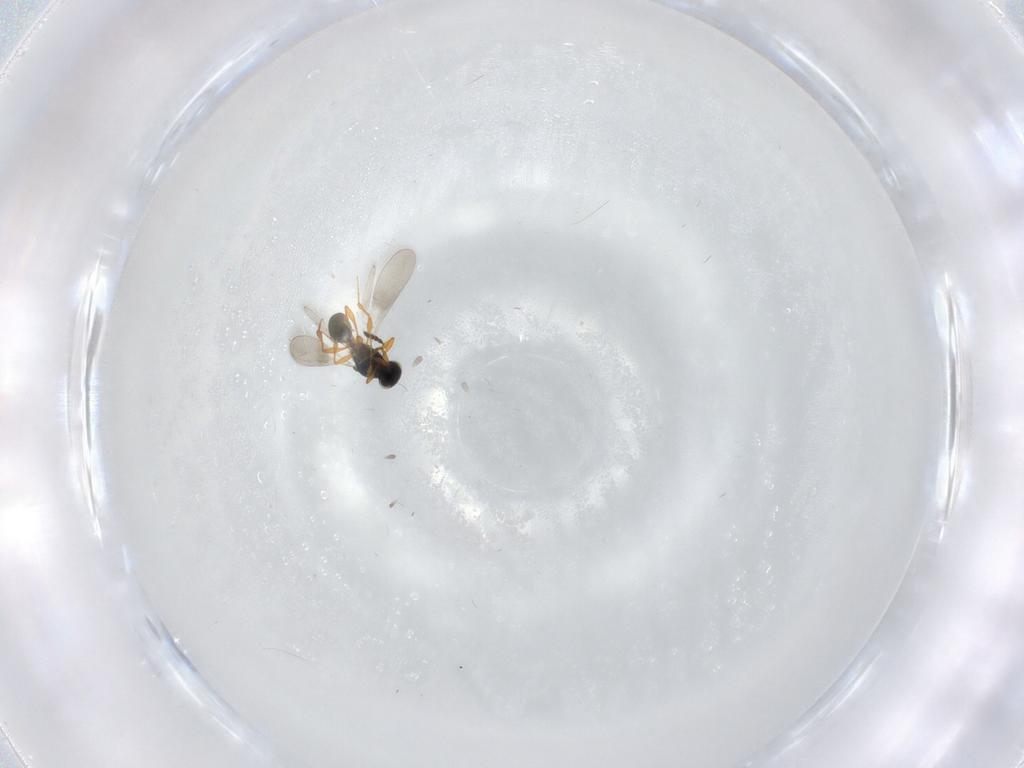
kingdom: Animalia
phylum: Arthropoda
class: Insecta
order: Hymenoptera
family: Platygastridae
